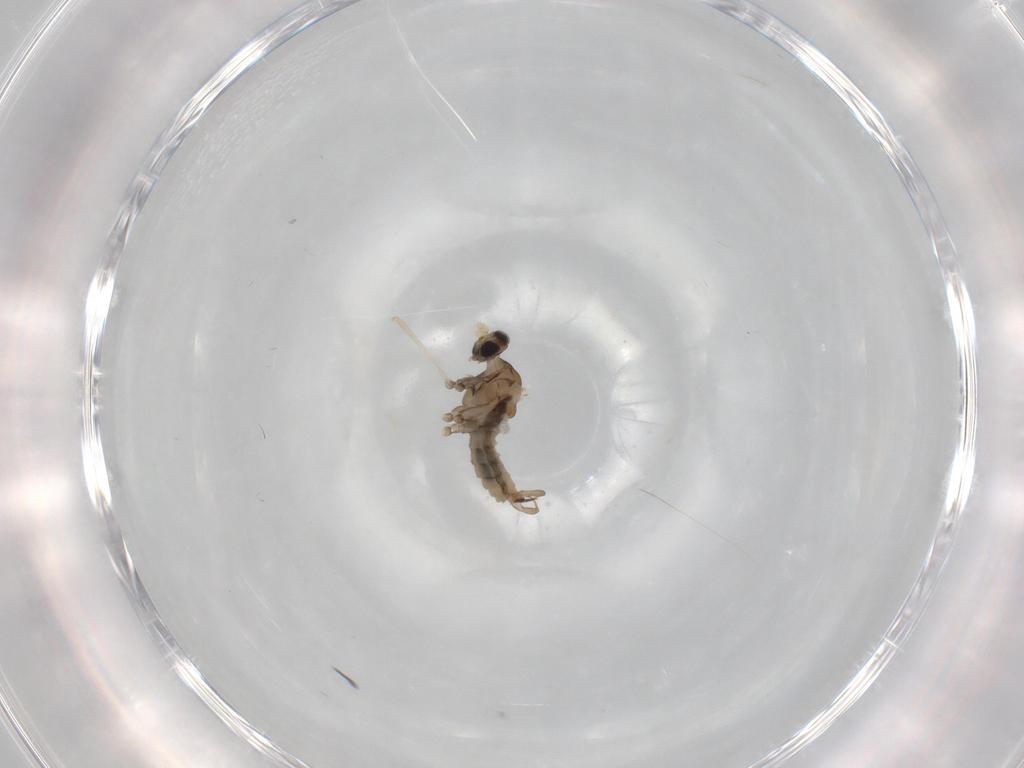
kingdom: Animalia
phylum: Arthropoda
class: Insecta
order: Diptera
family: Cecidomyiidae
